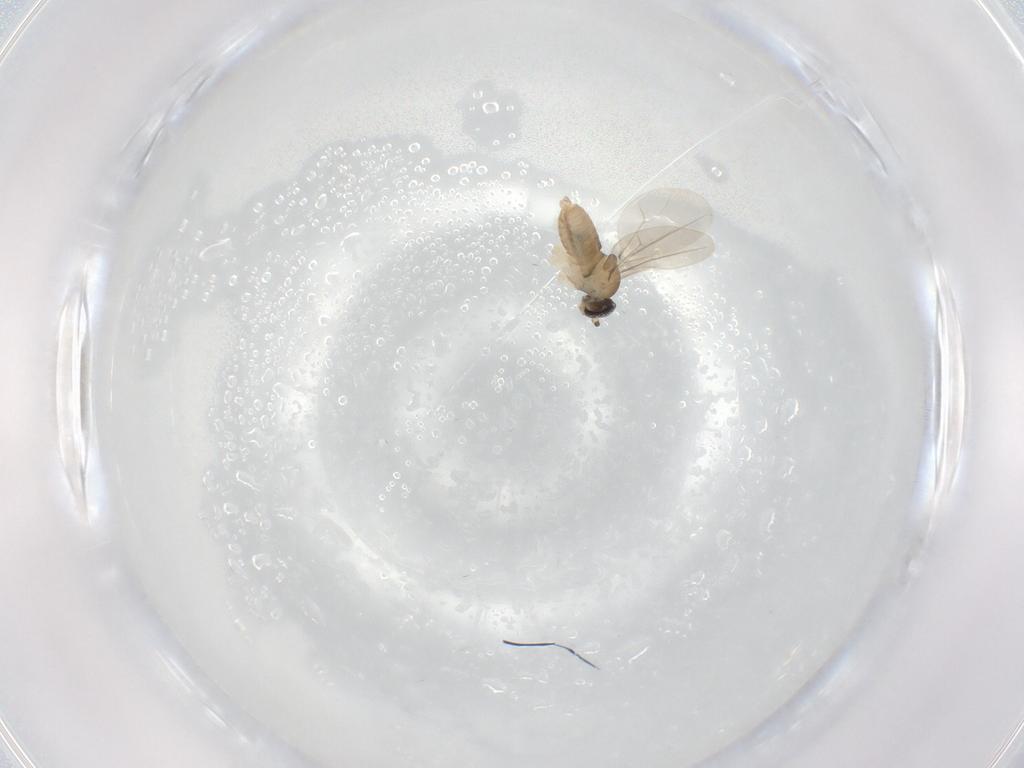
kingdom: Animalia
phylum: Arthropoda
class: Insecta
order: Diptera
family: Cecidomyiidae
